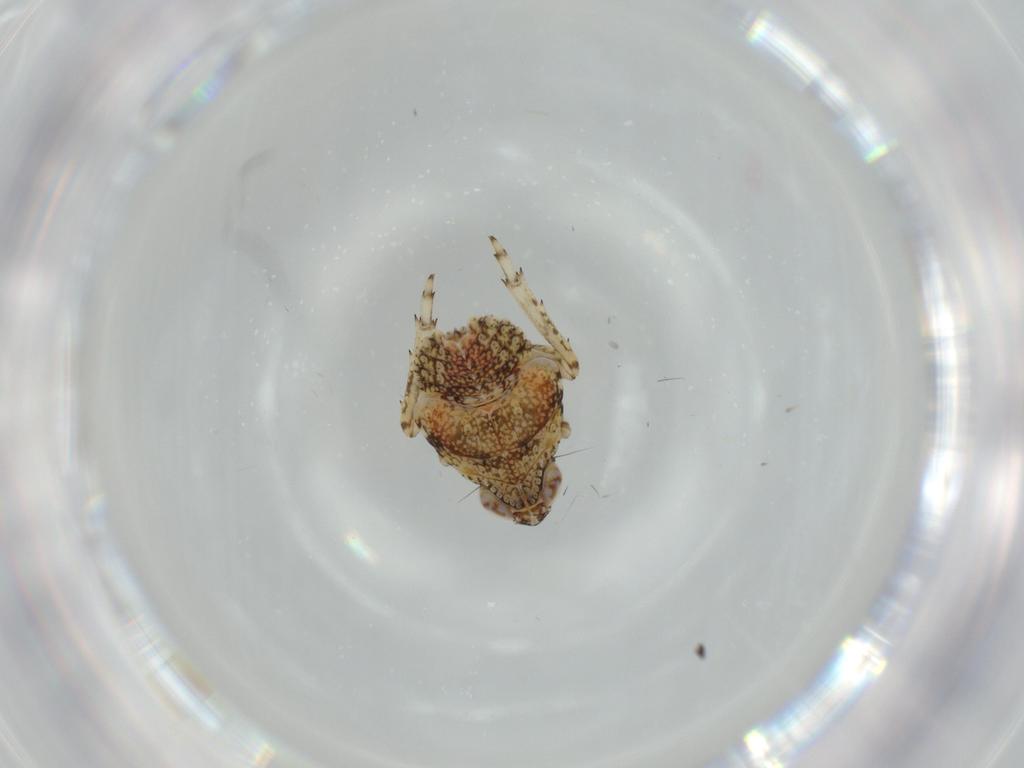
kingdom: Animalia
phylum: Arthropoda
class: Insecta
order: Hemiptera
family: Issidae
